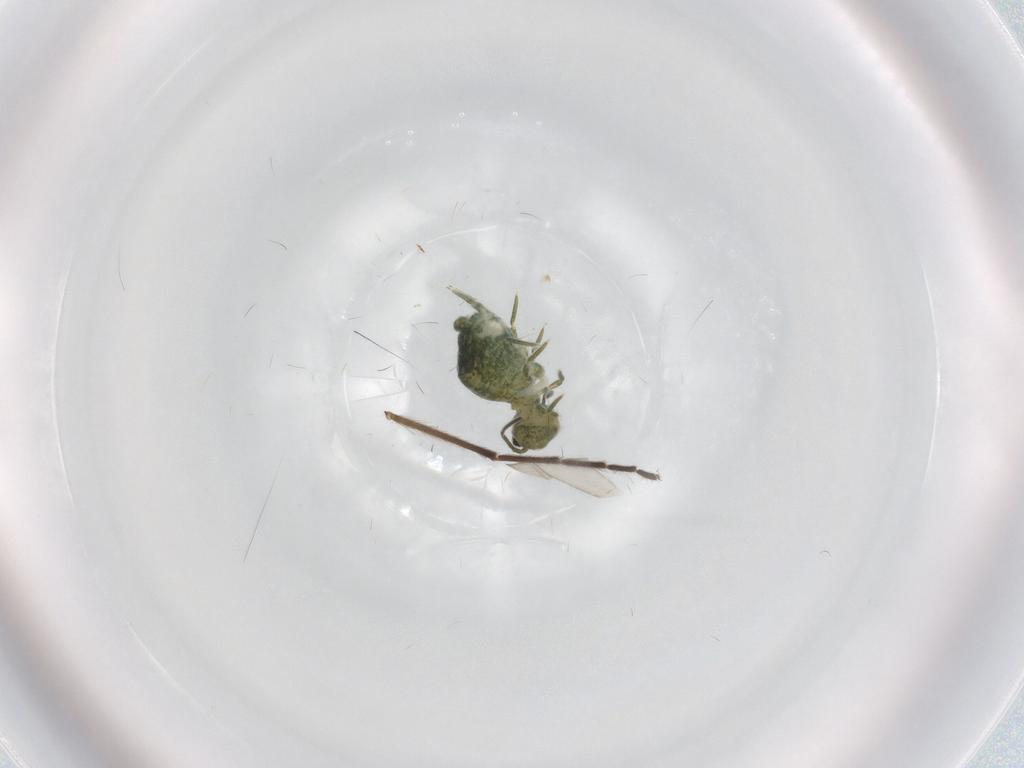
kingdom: Animalia
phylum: Arthropoda
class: Collembola
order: Symphypleona
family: Sminthuridae
